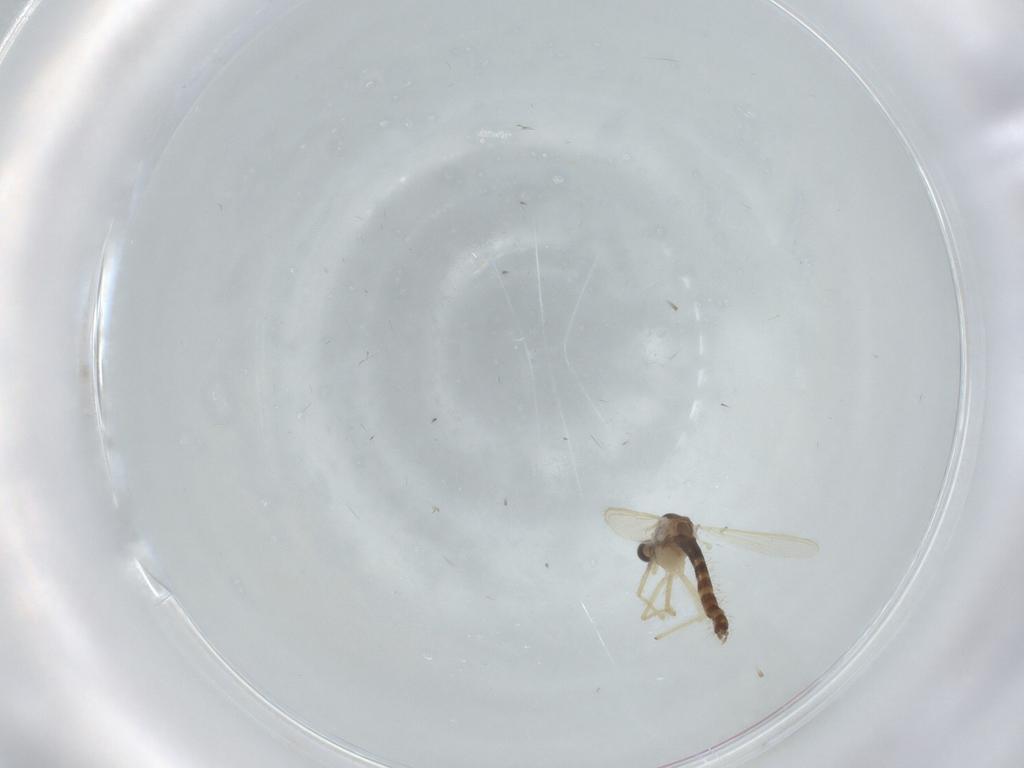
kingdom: Animalia
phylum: Arthropoda
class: Insecta
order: Diptera
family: Chironomidae
